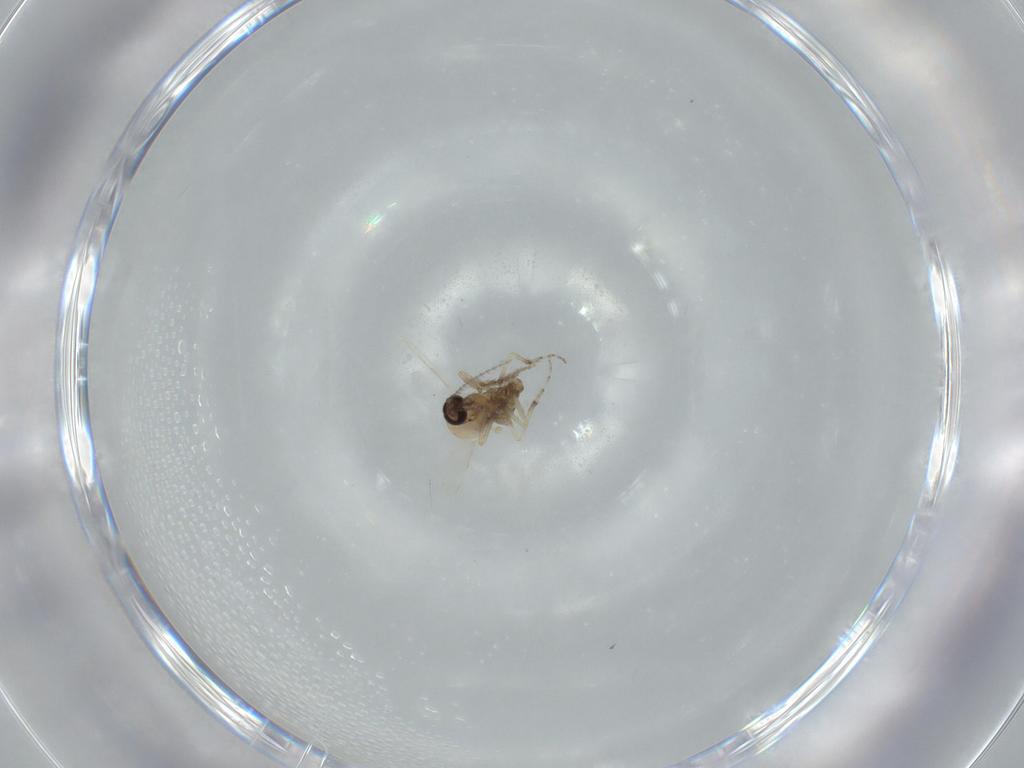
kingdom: Animalia
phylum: Arthropoda
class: Insecta
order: Diptera
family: Ceratopogonidae
